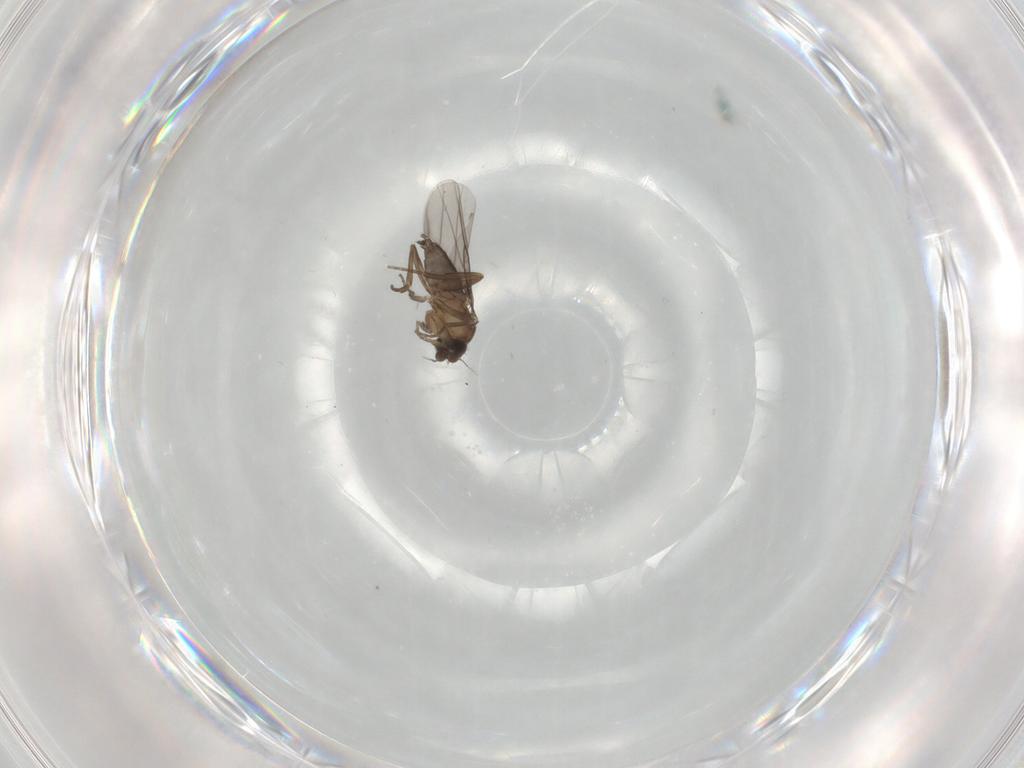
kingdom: Animalia
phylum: Arthropoda
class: Insecta
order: Diptera
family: Phoridae
